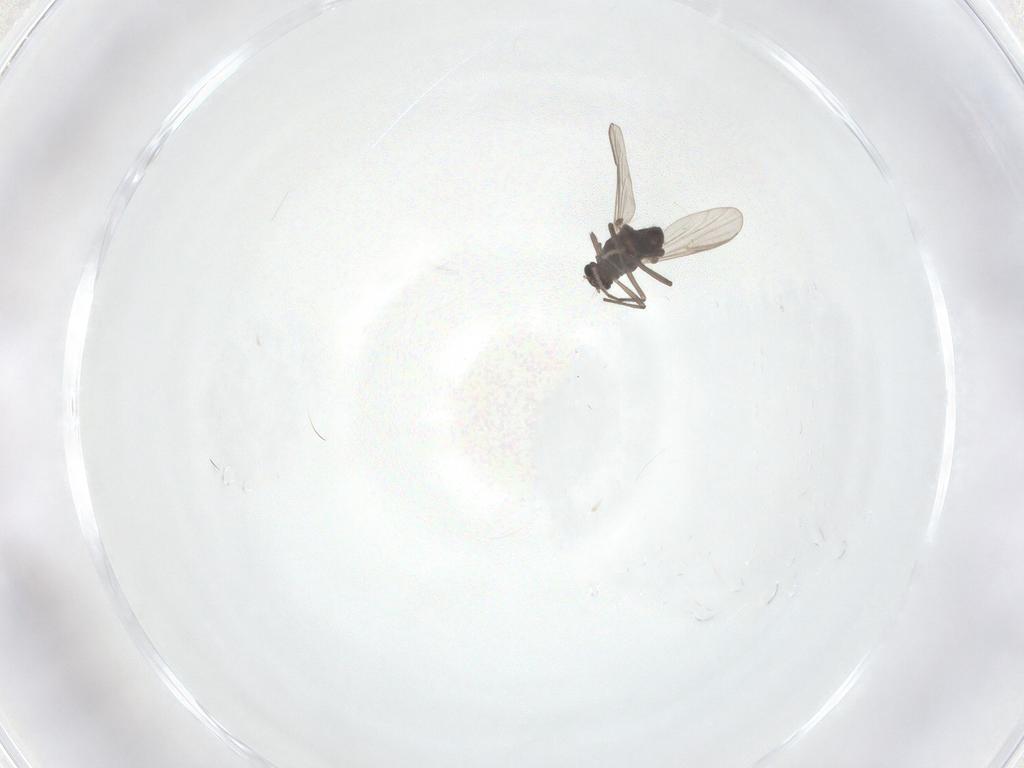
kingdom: Animalia
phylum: Arthropoda
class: Insecta
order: Diptera
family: Chironomidae
